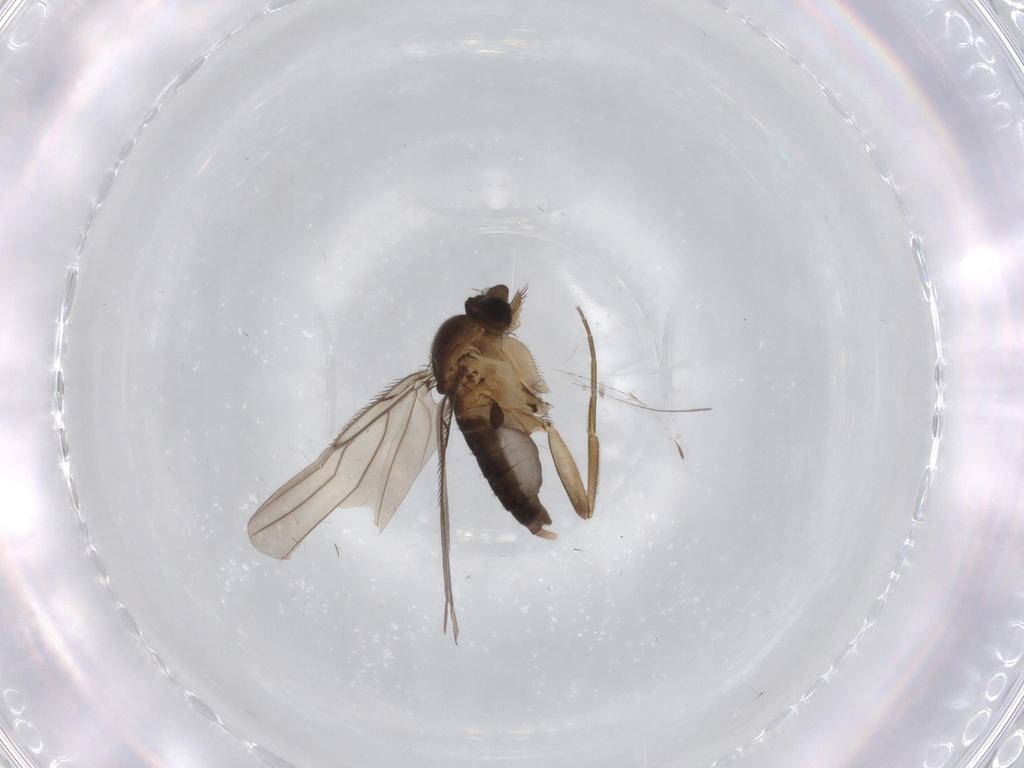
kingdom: Animalia
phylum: Arthropoda
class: Insecta
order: Diptera
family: Phoridae
